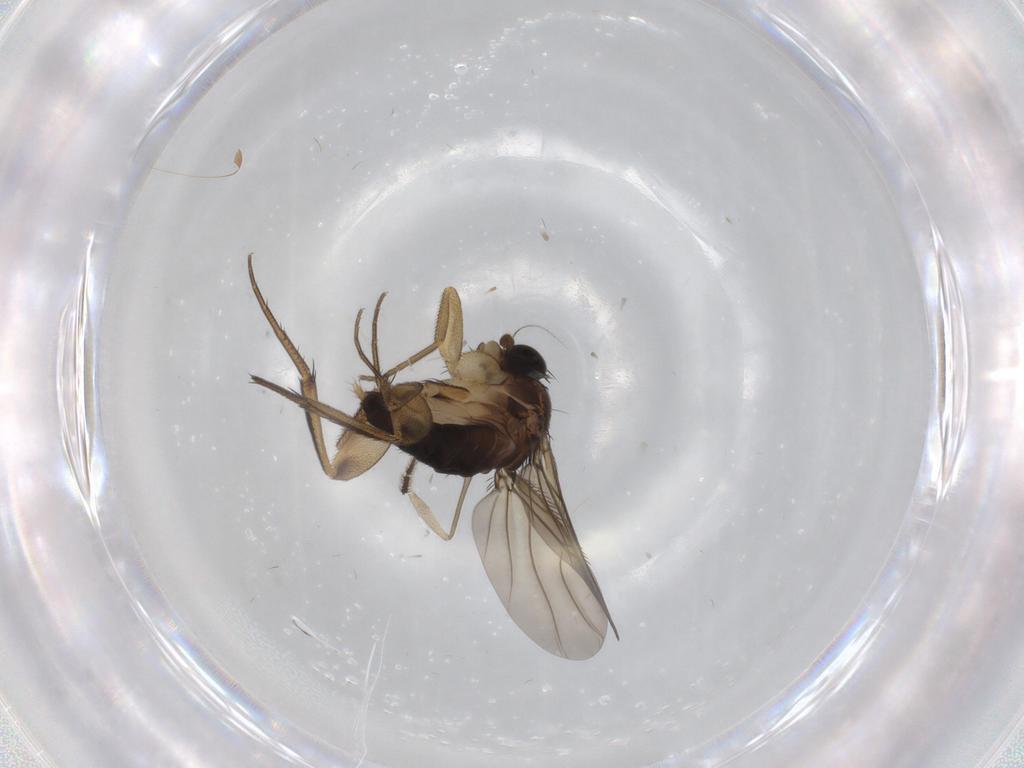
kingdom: Animalia
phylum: Arthropoda
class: Insecta
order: Diptera
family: Phoridae
